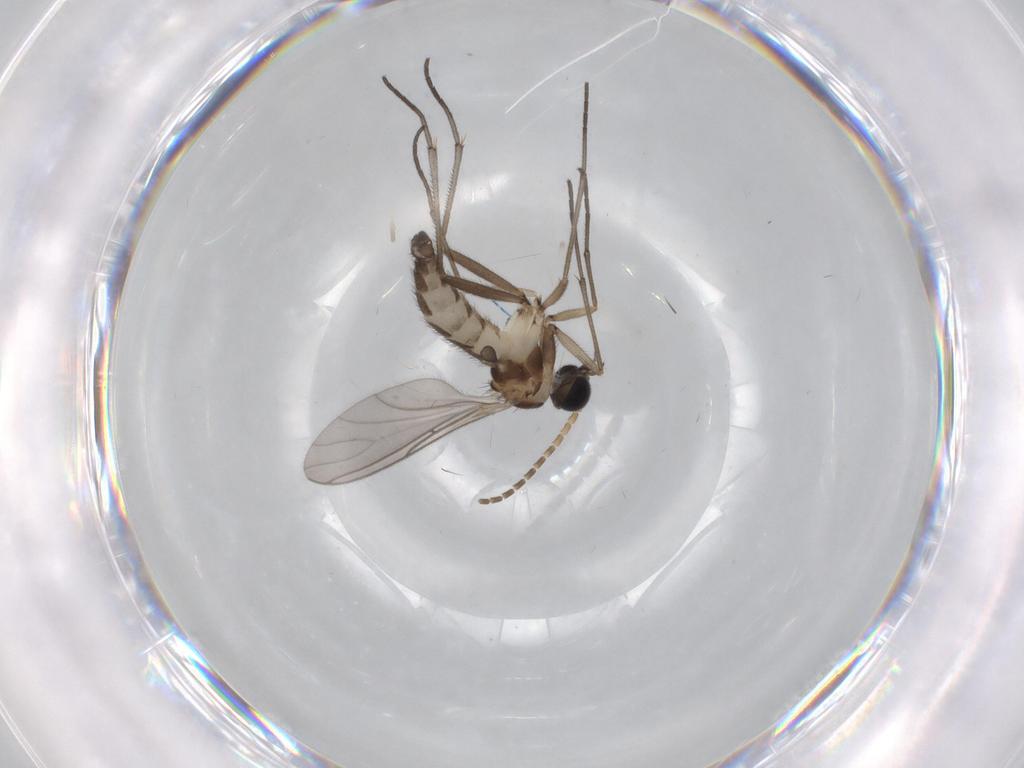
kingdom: Animalia
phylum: Arthropoda
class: Insecta
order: Diptera
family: Sciaridae
